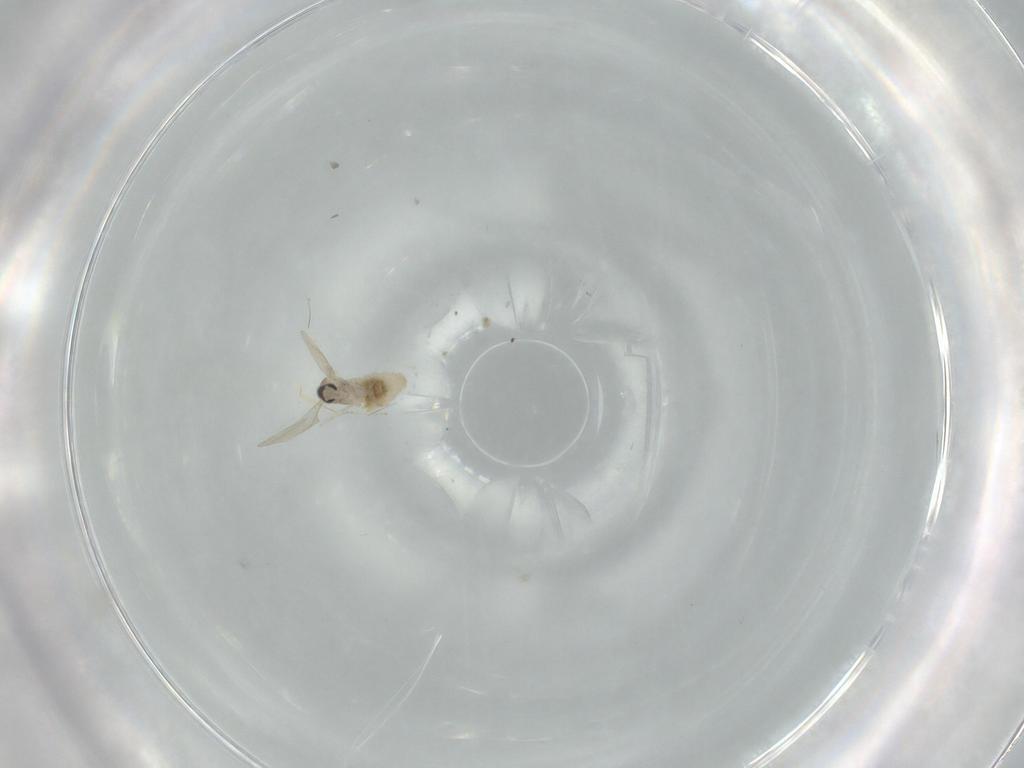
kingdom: Animalia
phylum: Arthropoda
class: Insecta
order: Diptera
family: Cecidomyiidae
